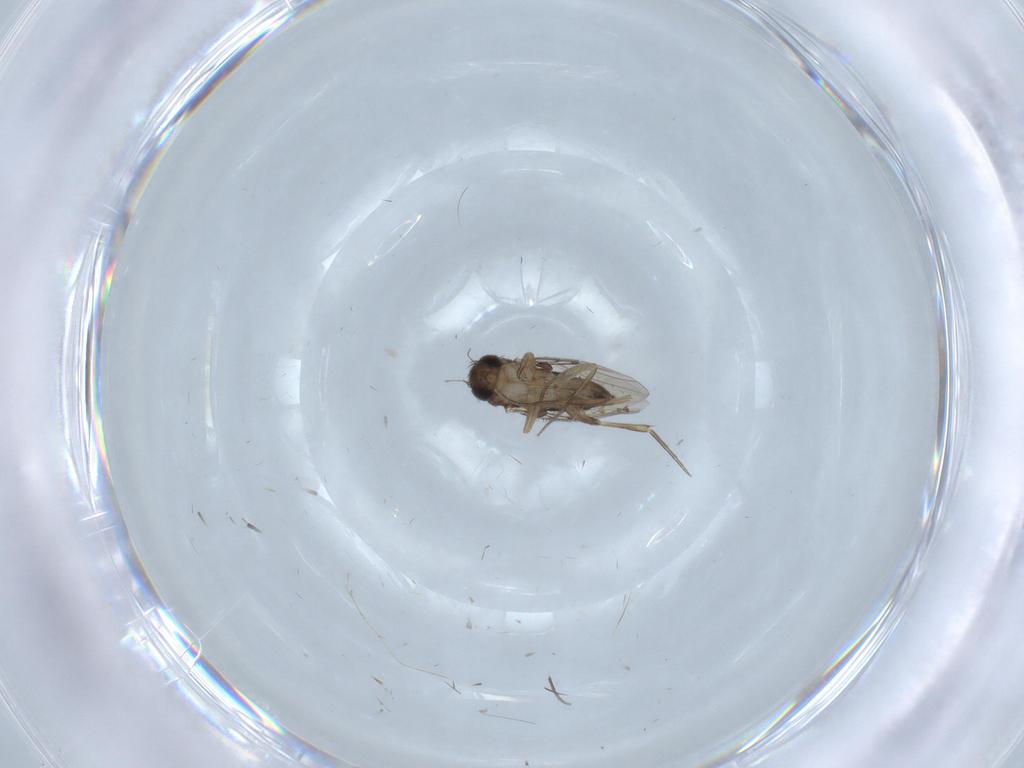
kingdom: Animalia
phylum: Arthropoda
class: Insecta
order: Diptera
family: Phoridae
